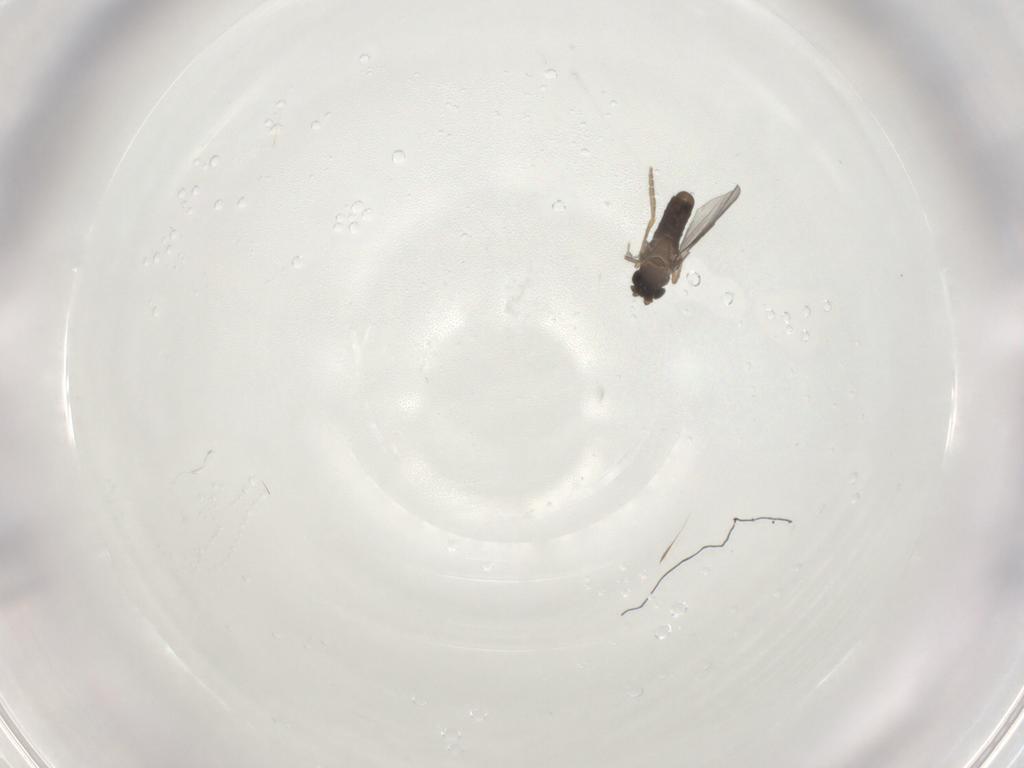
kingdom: Animalia
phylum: Arthropoda
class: Insecta
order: Diptera
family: Chironomidae
